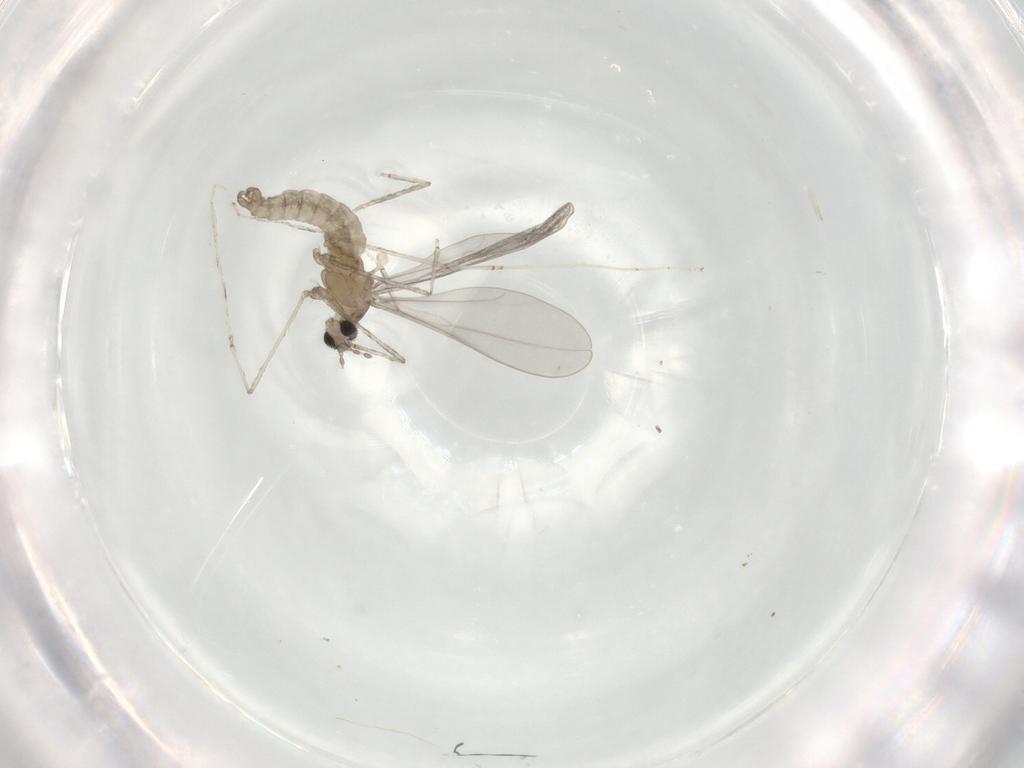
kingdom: Animalia
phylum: Arthropoda
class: Insecta
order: Diptera
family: Cecidomyiidae
